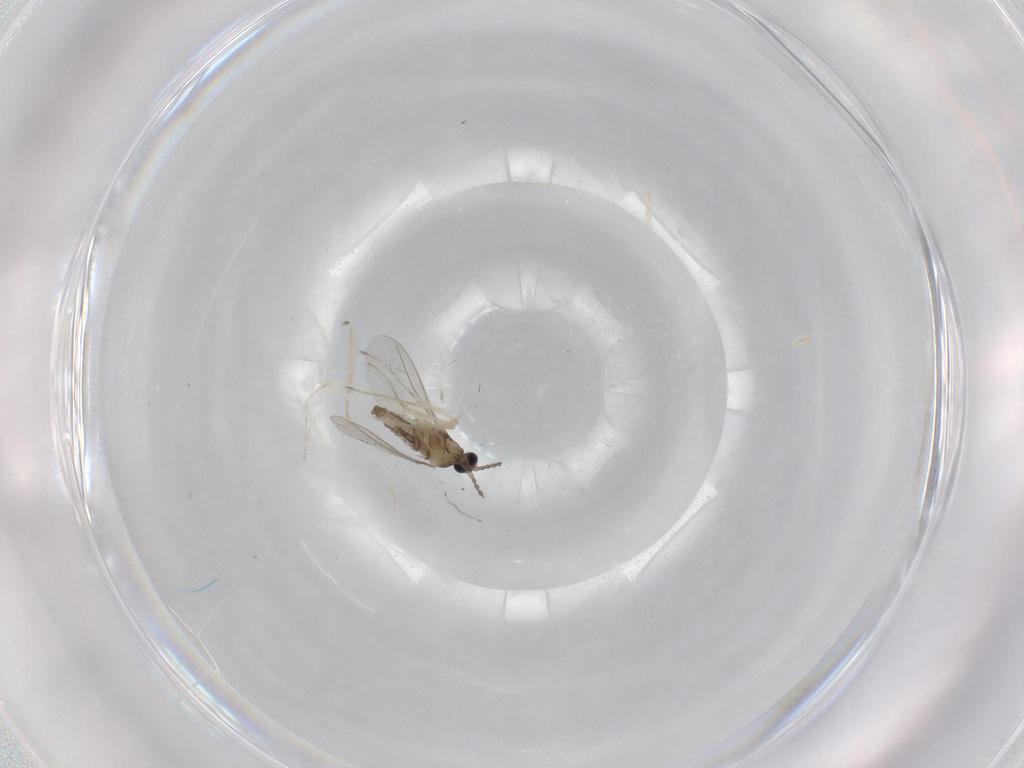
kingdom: Animalia
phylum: Arthropoda
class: Insecta
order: Diptera
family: Cecidomyiidae
